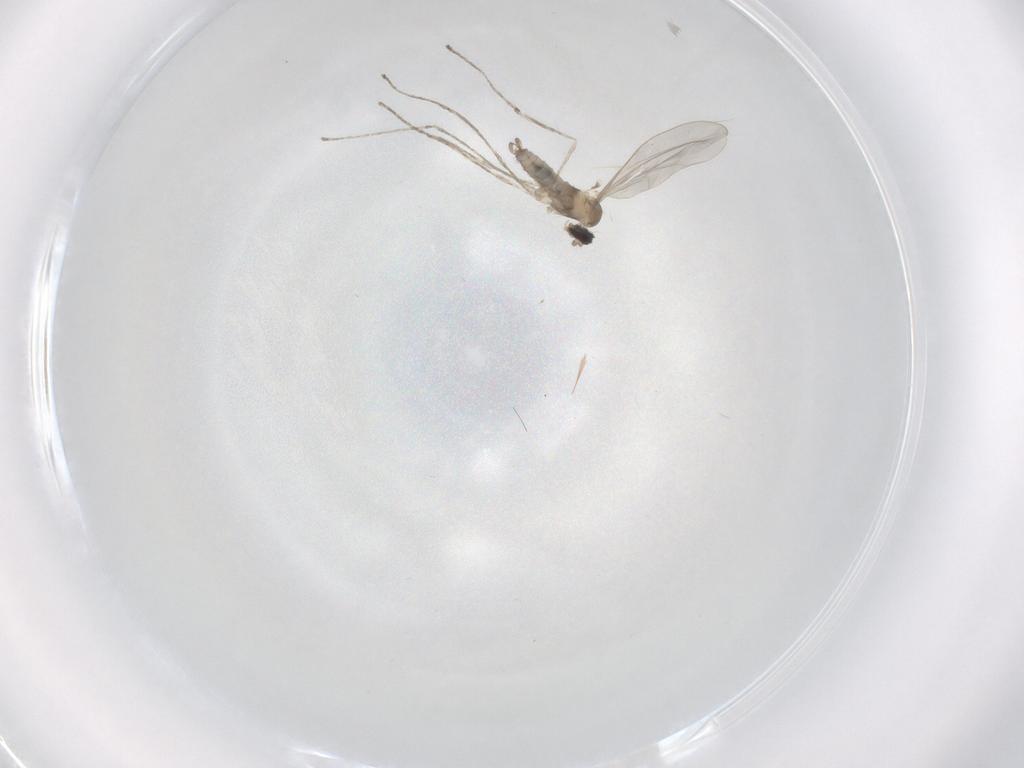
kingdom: Animalia
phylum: Arthropoda
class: Insecta
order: Diptera
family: Cecidomyiidae
